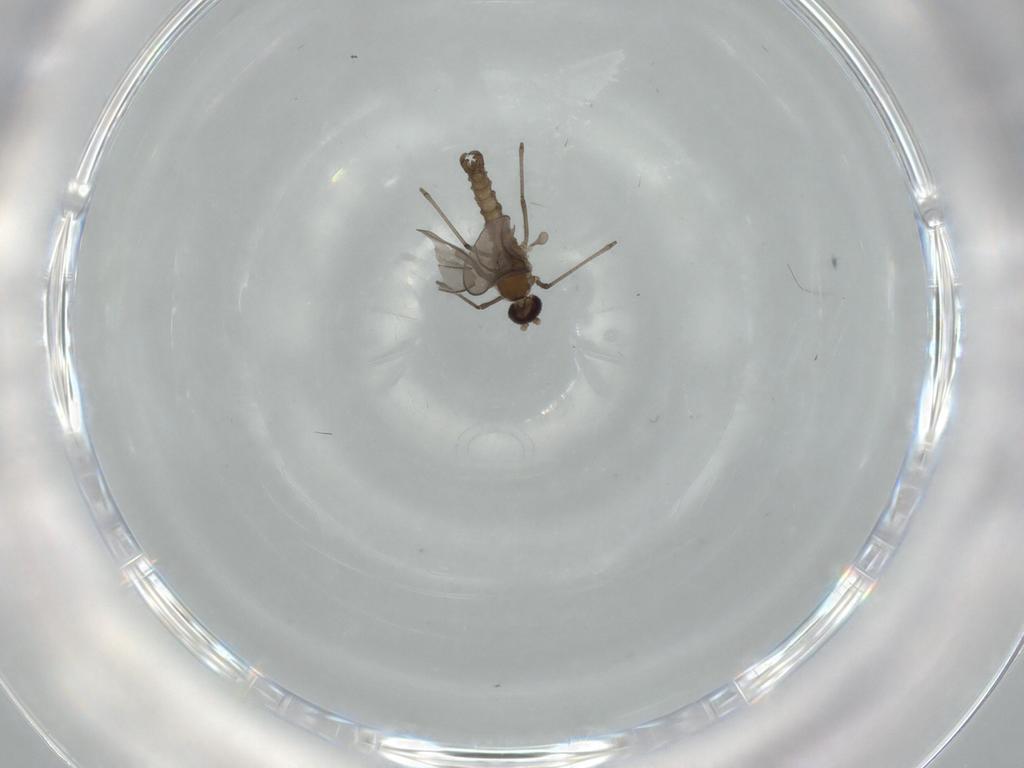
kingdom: Animalia
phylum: Arthropoda
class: Insecta
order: Diptera
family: Cecidomyiidae
